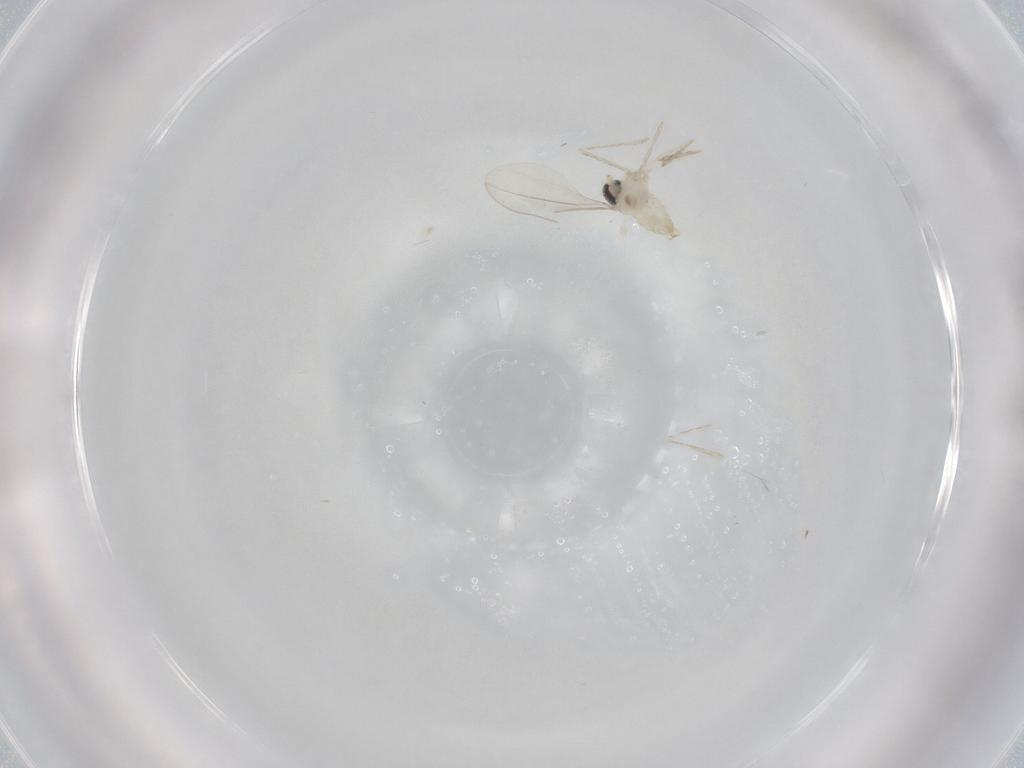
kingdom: Animalia
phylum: Arthropoda
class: Insecta
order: Diptera
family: Cecidomyiidae
